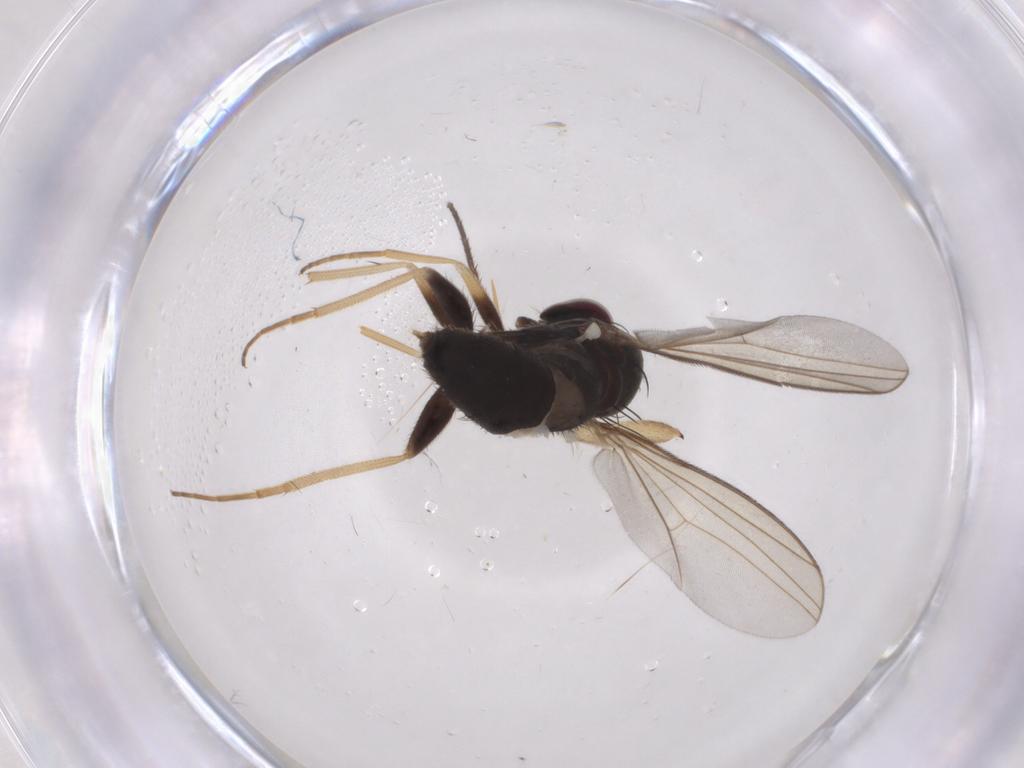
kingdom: Animalia
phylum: Arthropoda
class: Insecta
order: Diptera
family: Dolichopodidae
